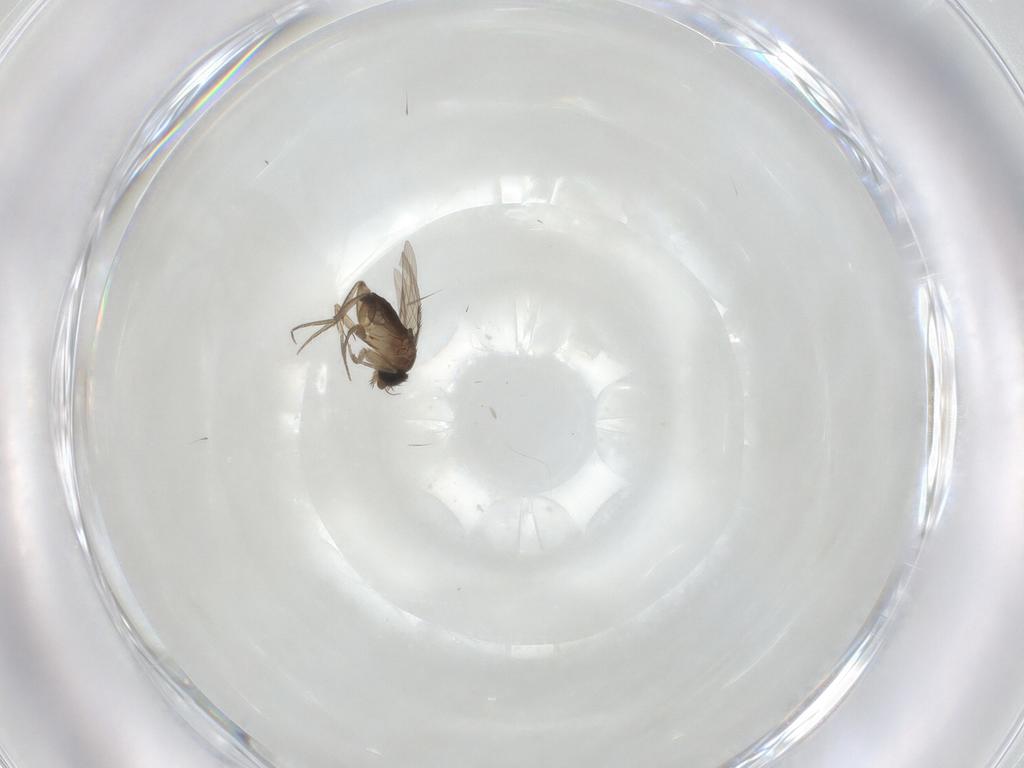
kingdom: Animalia
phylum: Arthropoda
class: Insecta
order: Diptera
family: Phoridae
